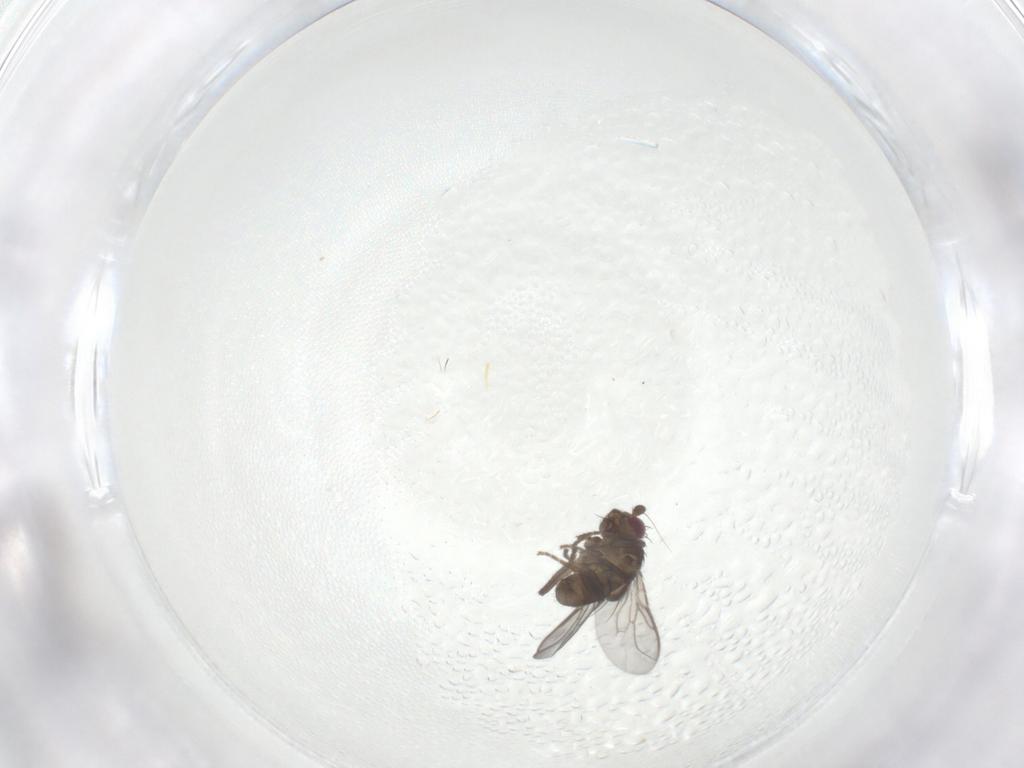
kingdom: Animalia
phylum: Arthropoda
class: Insecta
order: Diptera
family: Sphaeroceridae
